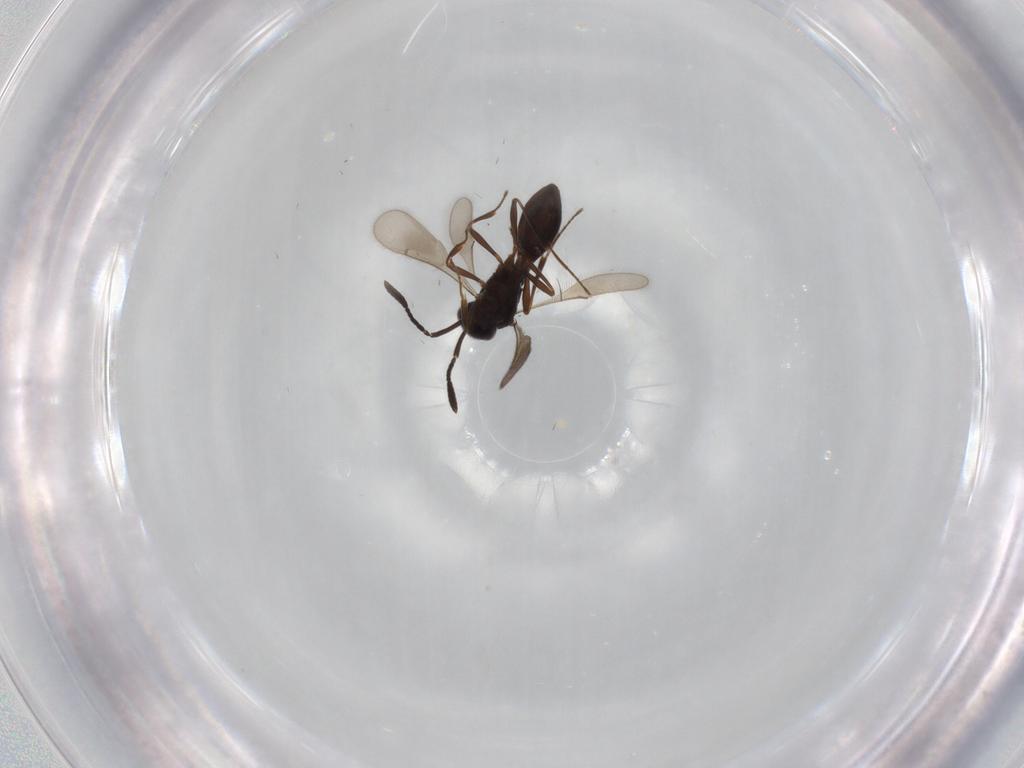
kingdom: Animalia
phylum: Arthropoda
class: Insecta
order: Hymenoptera
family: Scelionidae
